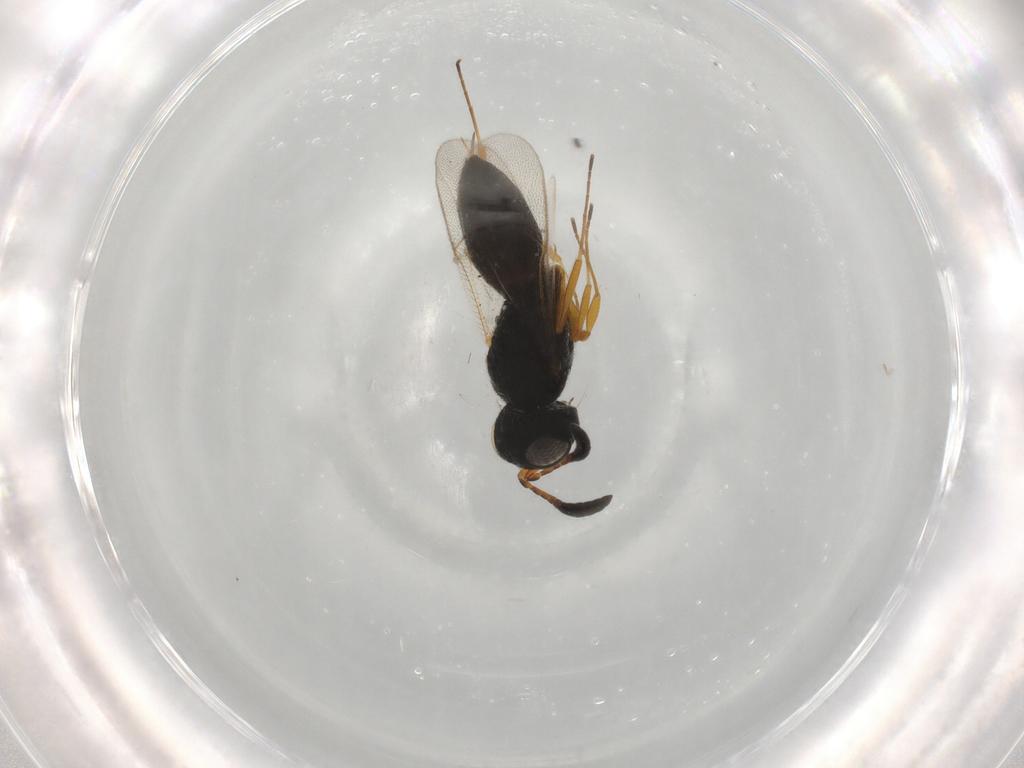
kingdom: Animalia
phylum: Arthropoda
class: Insecta
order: Hymenoptera
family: Scelionidae
